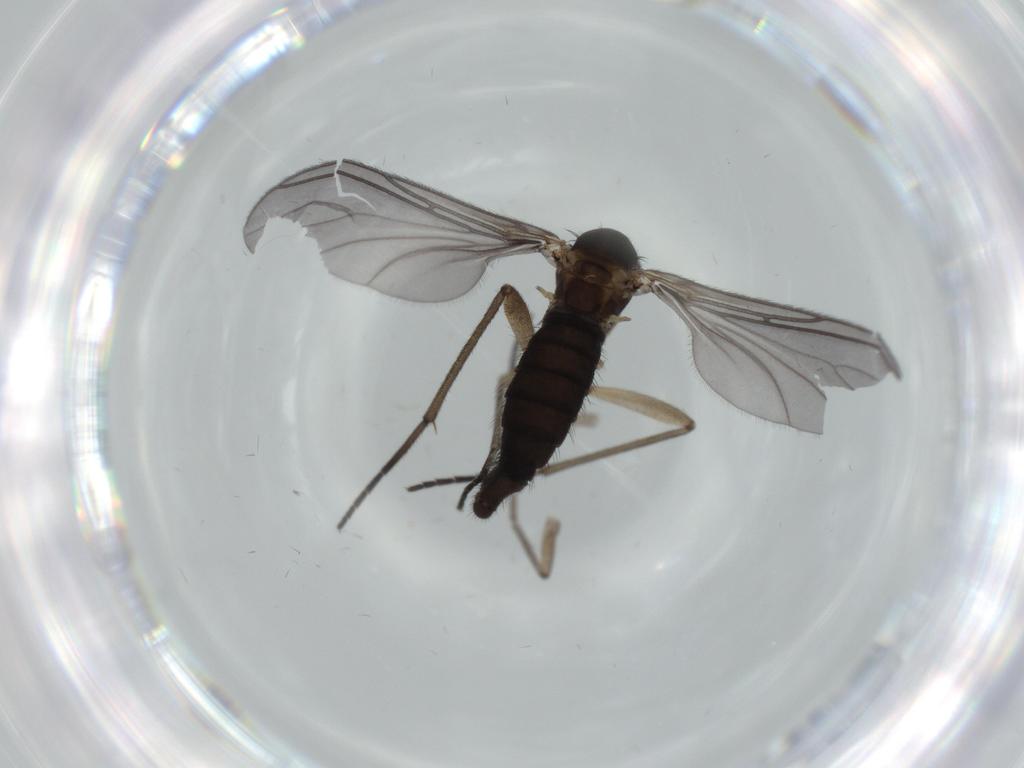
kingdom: Animalia
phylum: Arthropoda
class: Insecta
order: Diptera
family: Sciaridae
